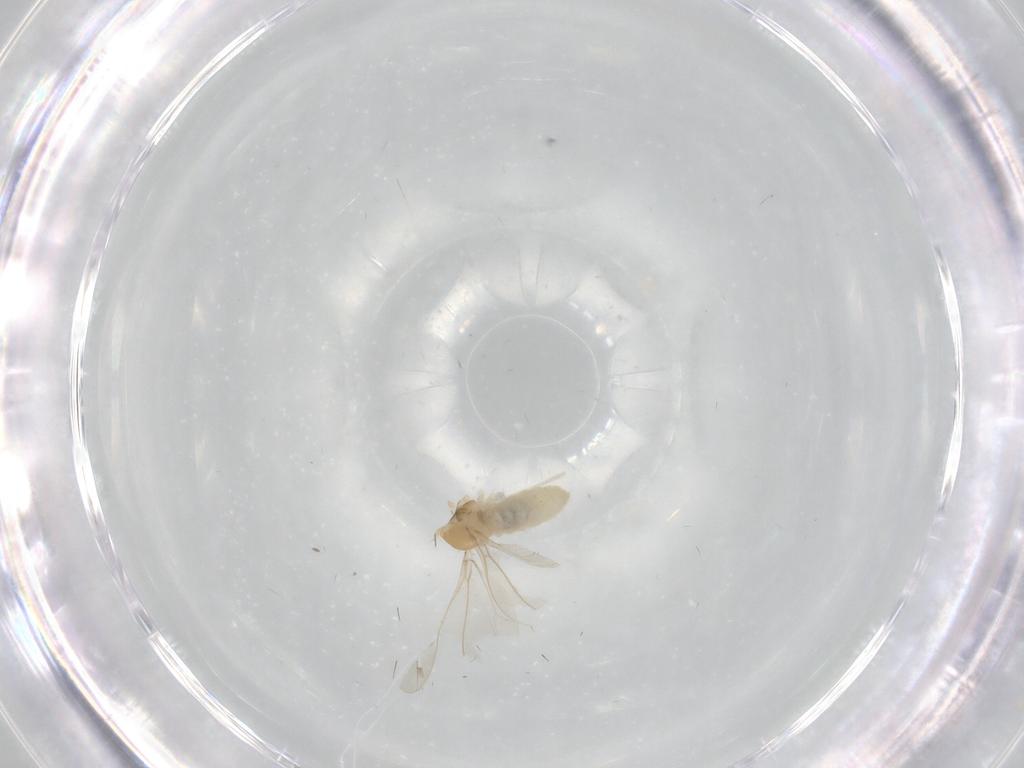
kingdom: Animalia
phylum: Arthropoda
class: Insecta
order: Diptera
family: Cecidomyiidae
